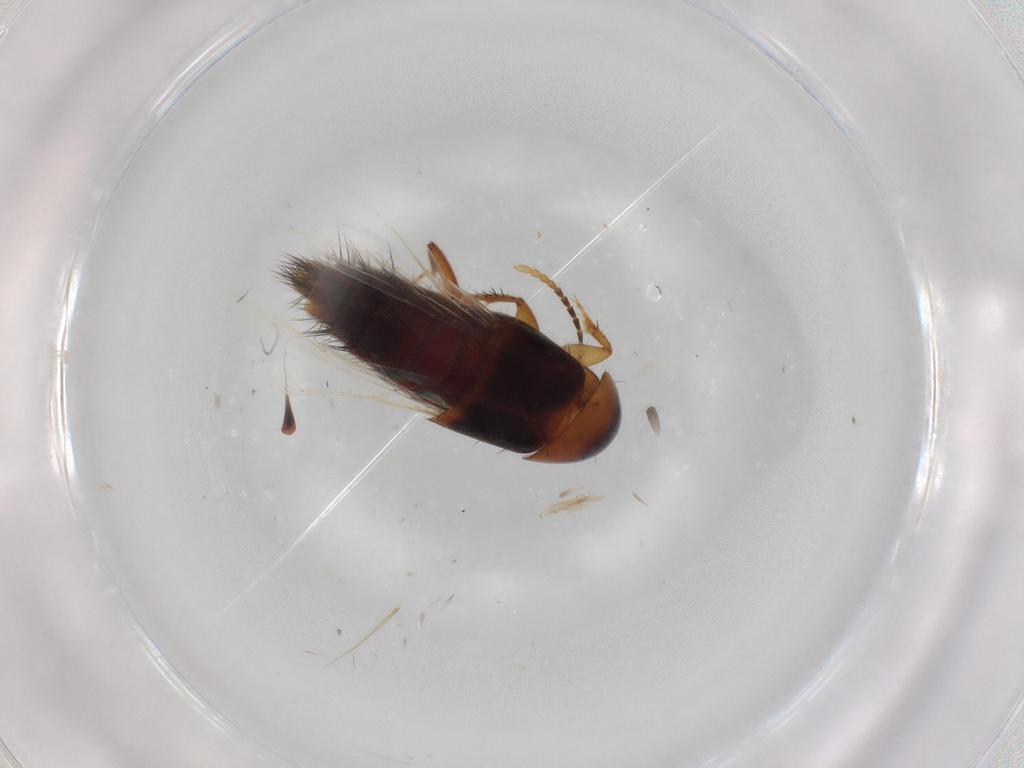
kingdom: Animalia
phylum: Arthropoda
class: Insecta
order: Coleoptera
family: Staphylinidae
